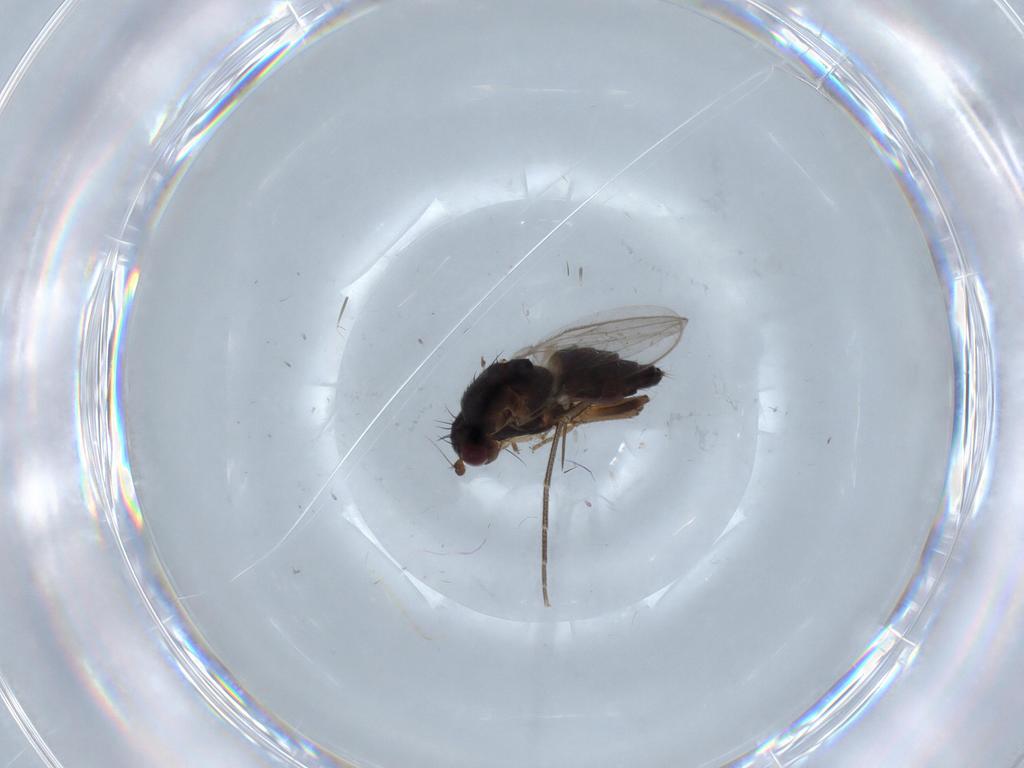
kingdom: Animalia
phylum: Arthropoda
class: Insecta
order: Diptera
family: Sphaeroceridae
